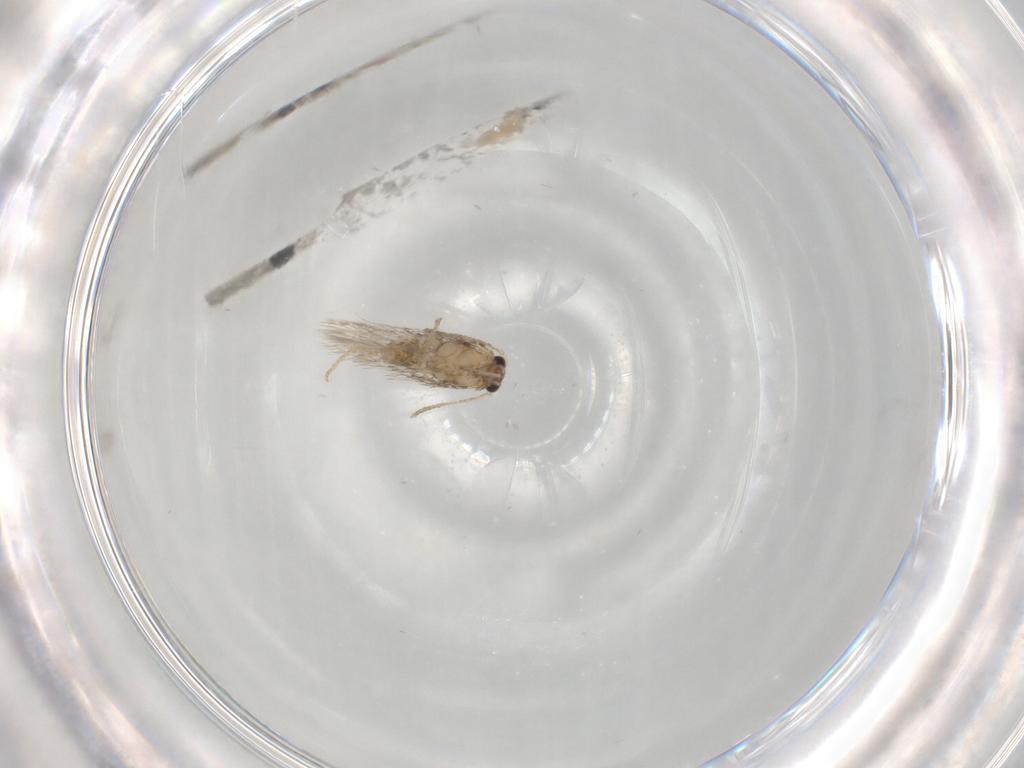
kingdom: Animalia
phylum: Arthropoda
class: Insecta
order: Lepidoptera
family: Nepticulidae
